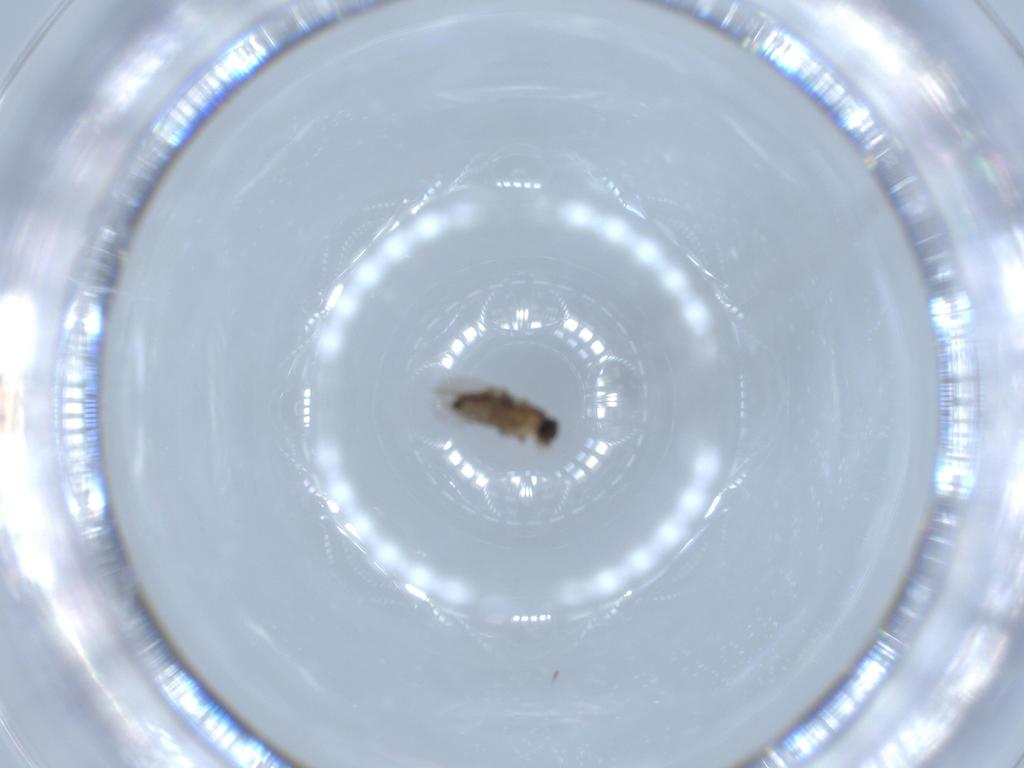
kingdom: Animalia
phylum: Arthropoda
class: Insecta
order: Diptera
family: Phoridae
